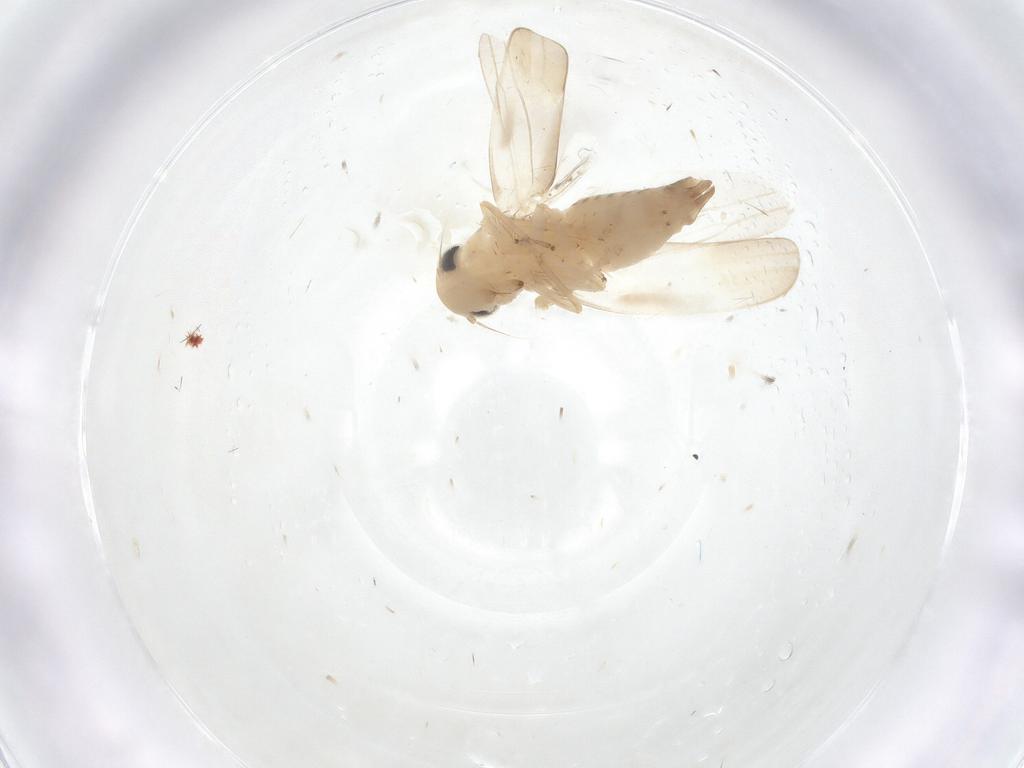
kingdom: Animalia
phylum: Arthropoda
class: Insecta
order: Hemiptera
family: Cicadellidae
